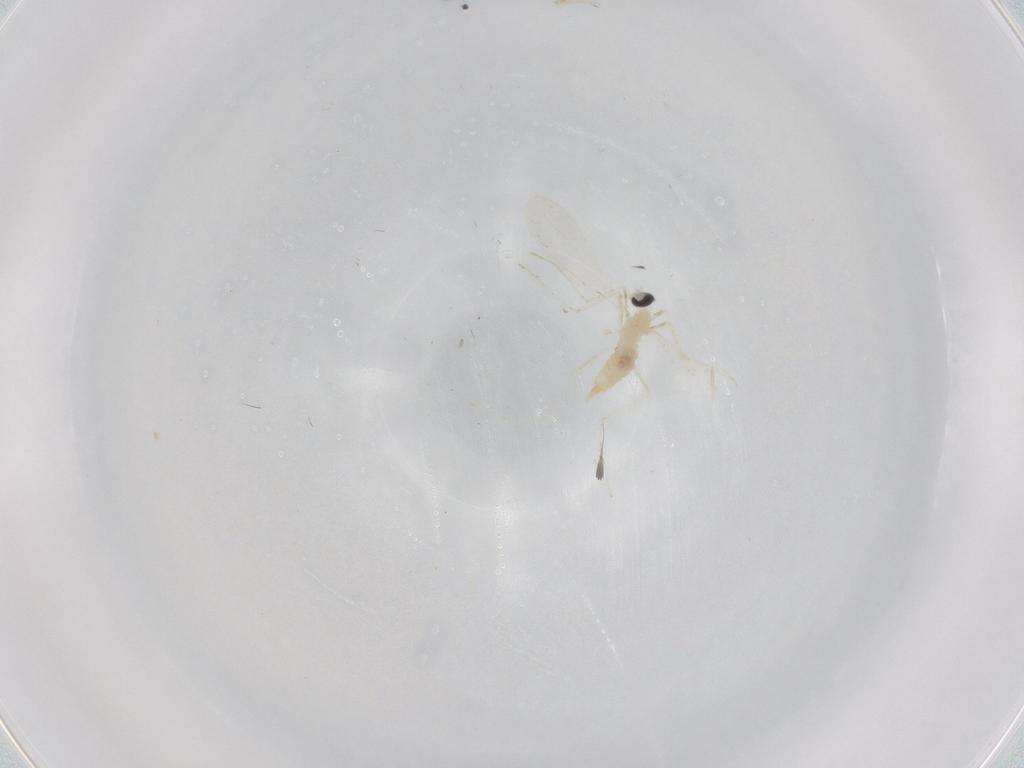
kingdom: Animalia
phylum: Arthropoda
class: Insecta
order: Diptera
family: Cecidomyiidae
